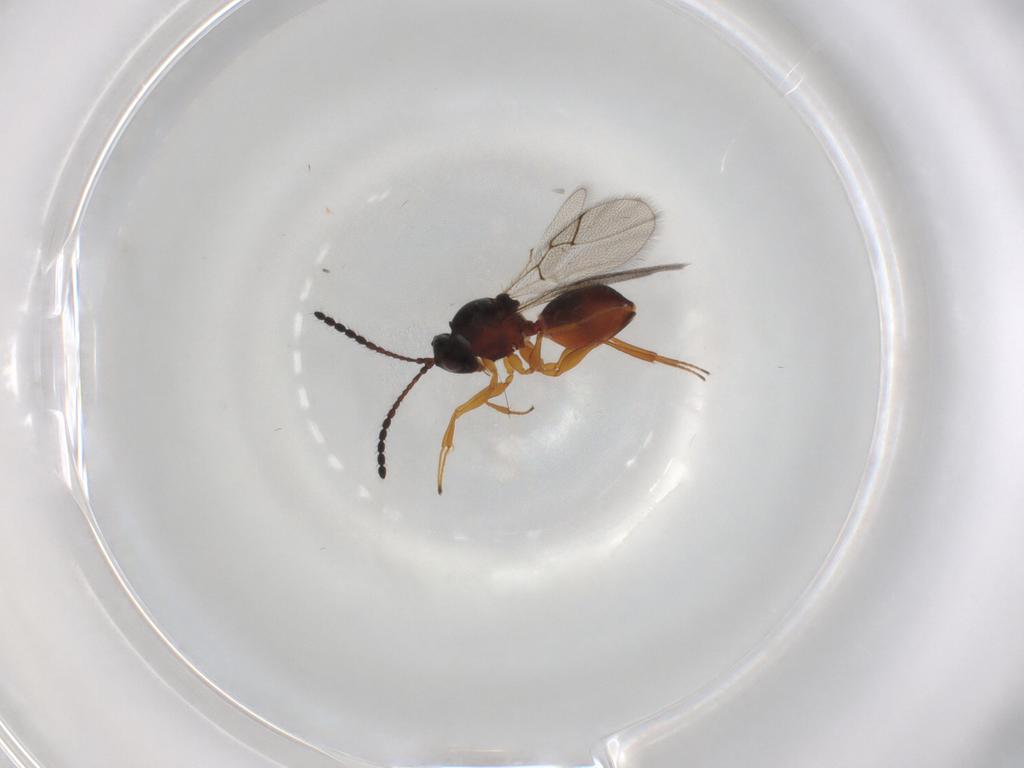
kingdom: Animalia
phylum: Arthropoda
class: Insecta
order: Hymenoptera
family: Figitidae
